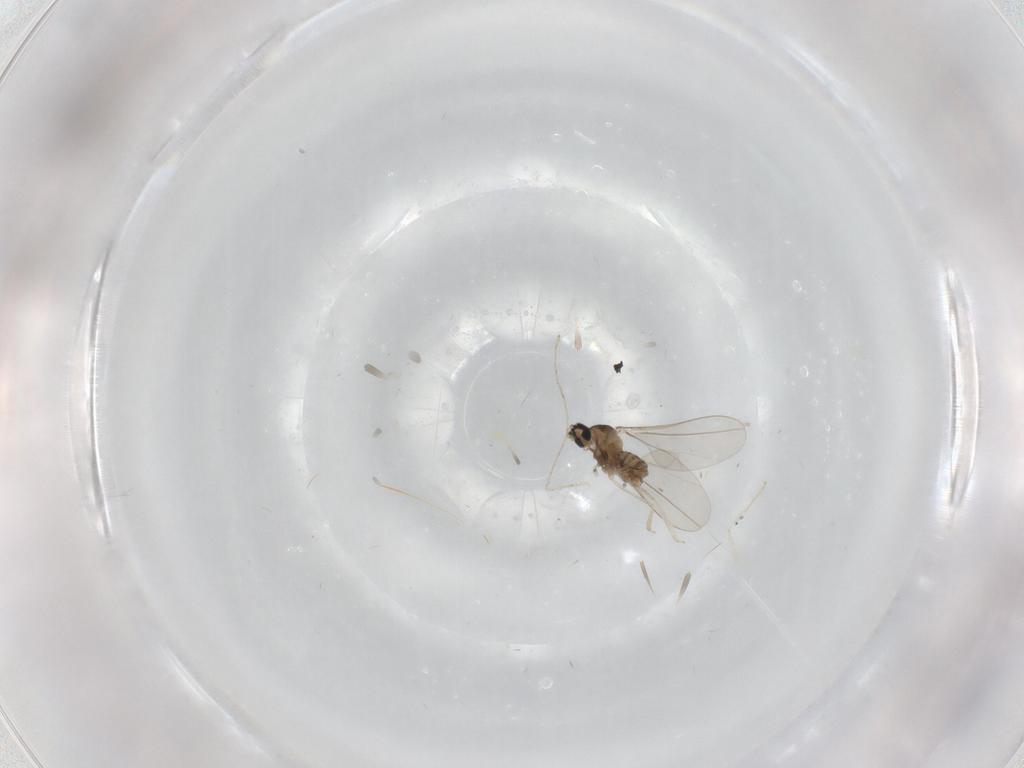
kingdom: Animalia
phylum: Arthropoda
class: Insecta
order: Diptera
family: Cecidomyiidae
